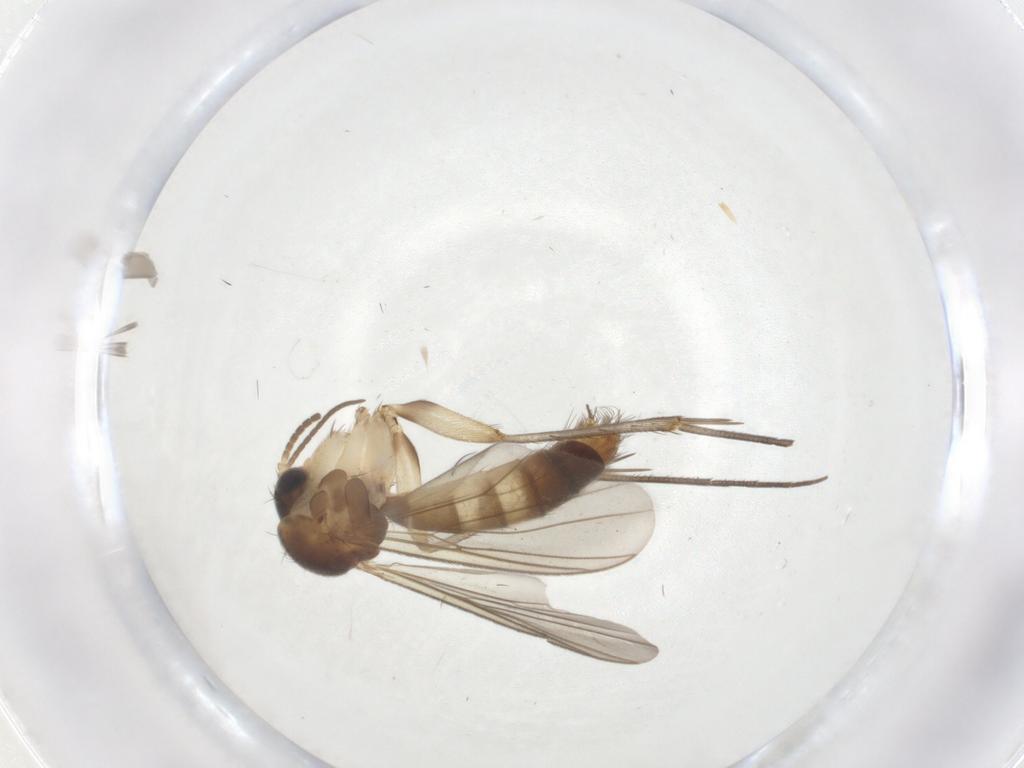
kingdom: Animalia
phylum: Arthropoda
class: Insecta
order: Diptera
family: Mycetophilidae
